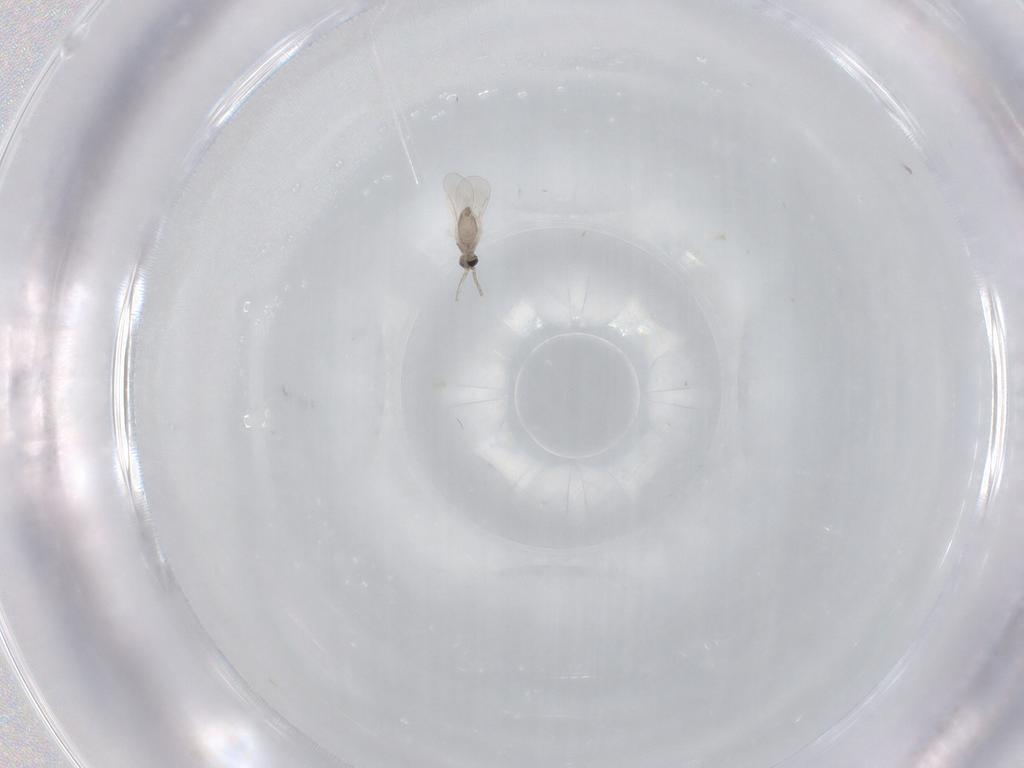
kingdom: Animalia
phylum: Arthropoda
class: Insecta
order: Diptera
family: Cecidomyiidae
